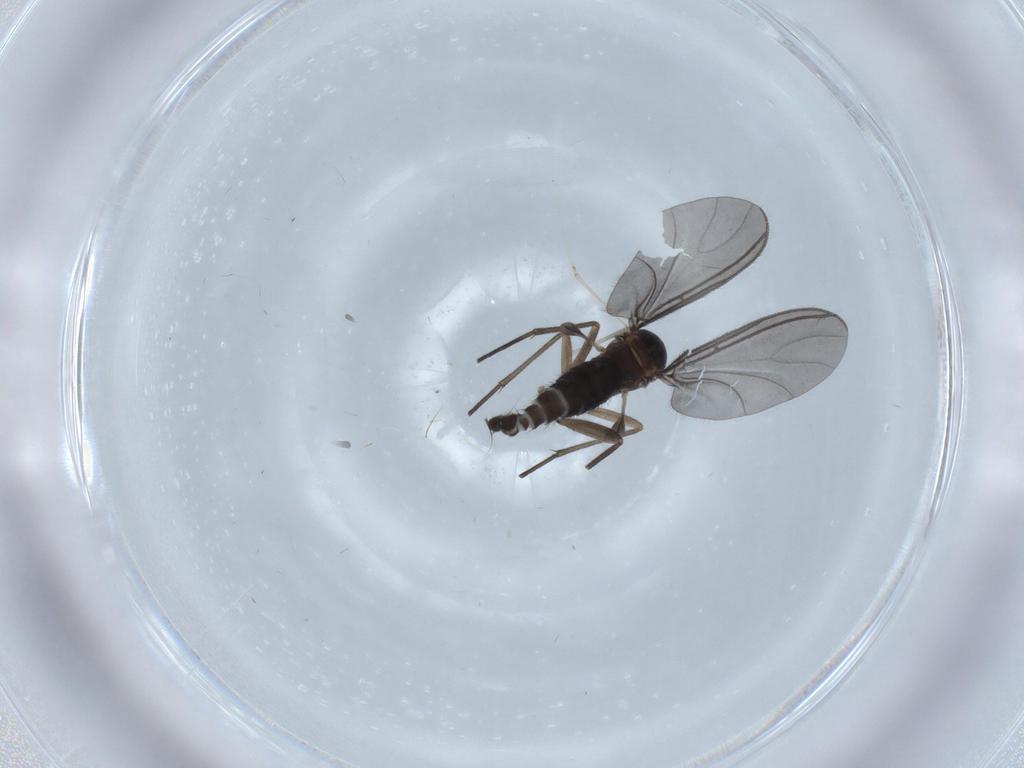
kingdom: Animalia
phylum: Arthropoda
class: Insecta
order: Diptera
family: Sciaridae
